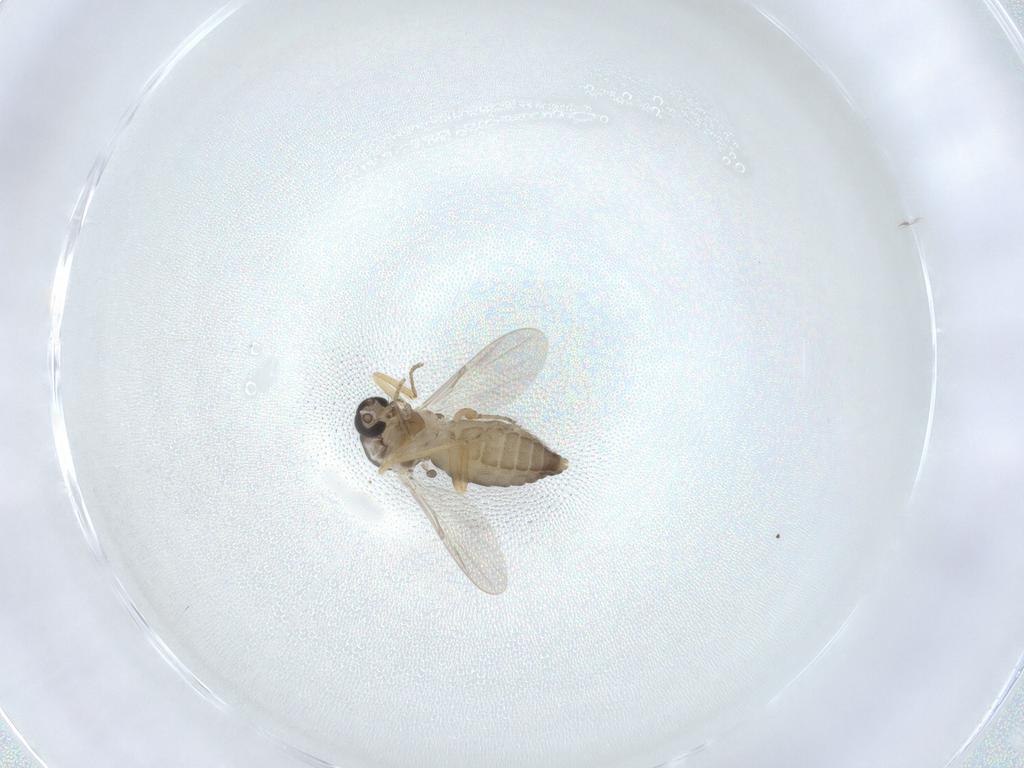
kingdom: Animalia
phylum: Arthropoda
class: Insecta
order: Diptera
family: Ceratopogonidae
